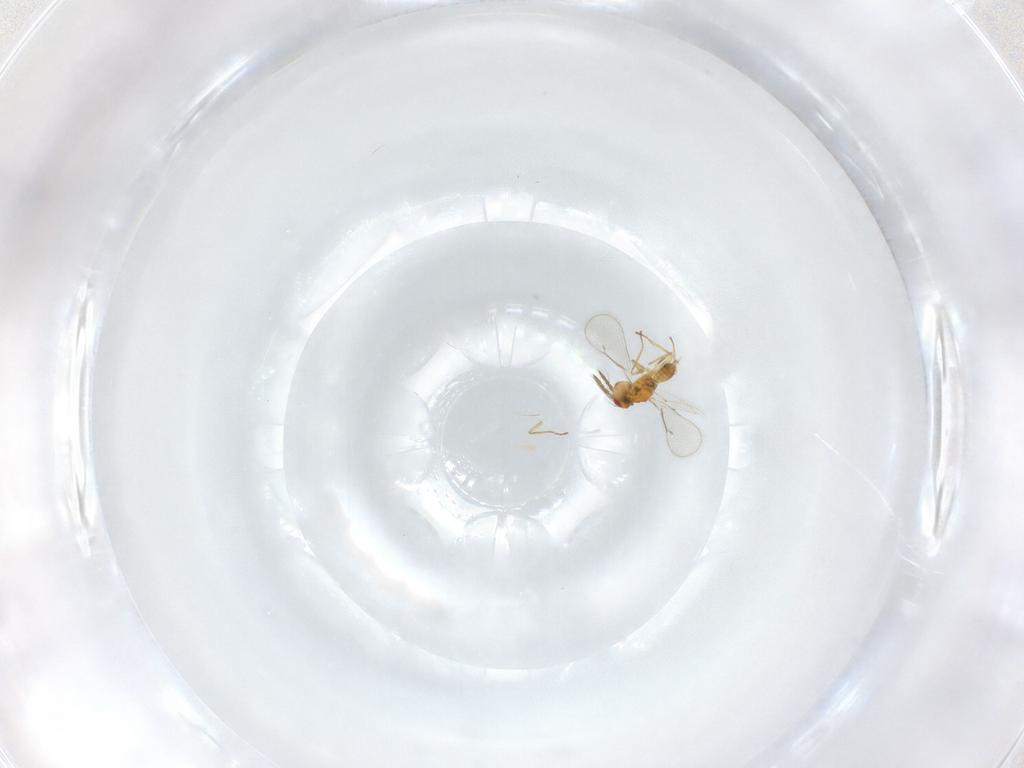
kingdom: Animalia
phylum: Arthropoda
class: Insecta
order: Hymenoptera
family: Eulophidae
